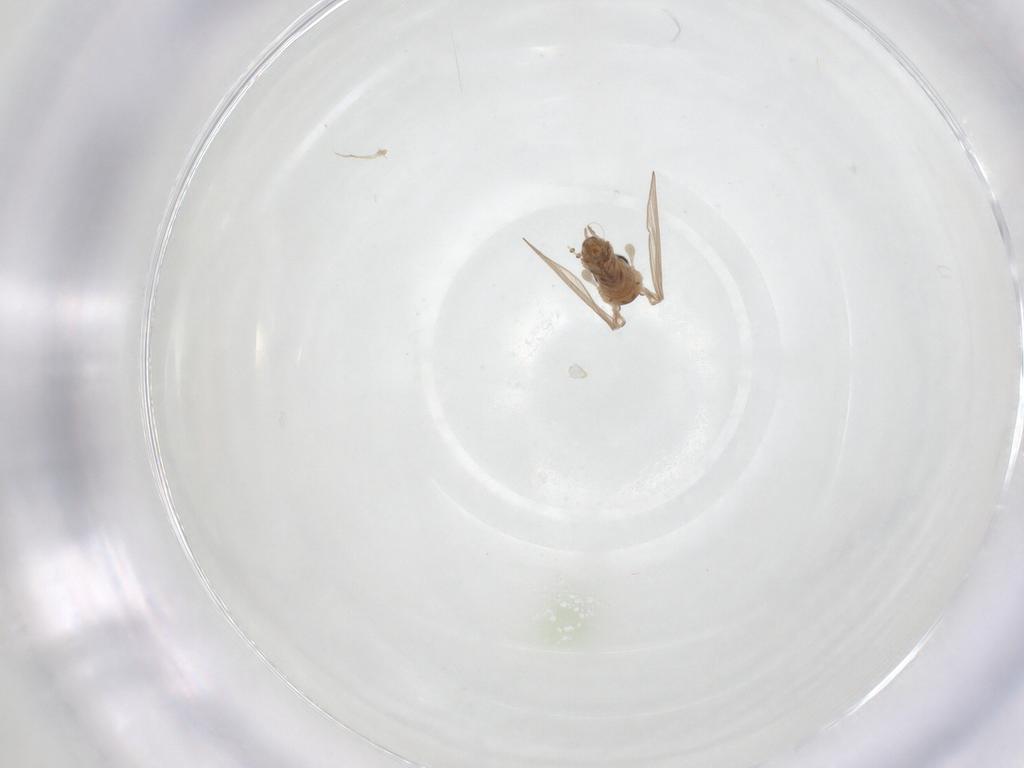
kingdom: Animalia
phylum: Arthropoda
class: Insecta
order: Diptera
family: Psychodidae
